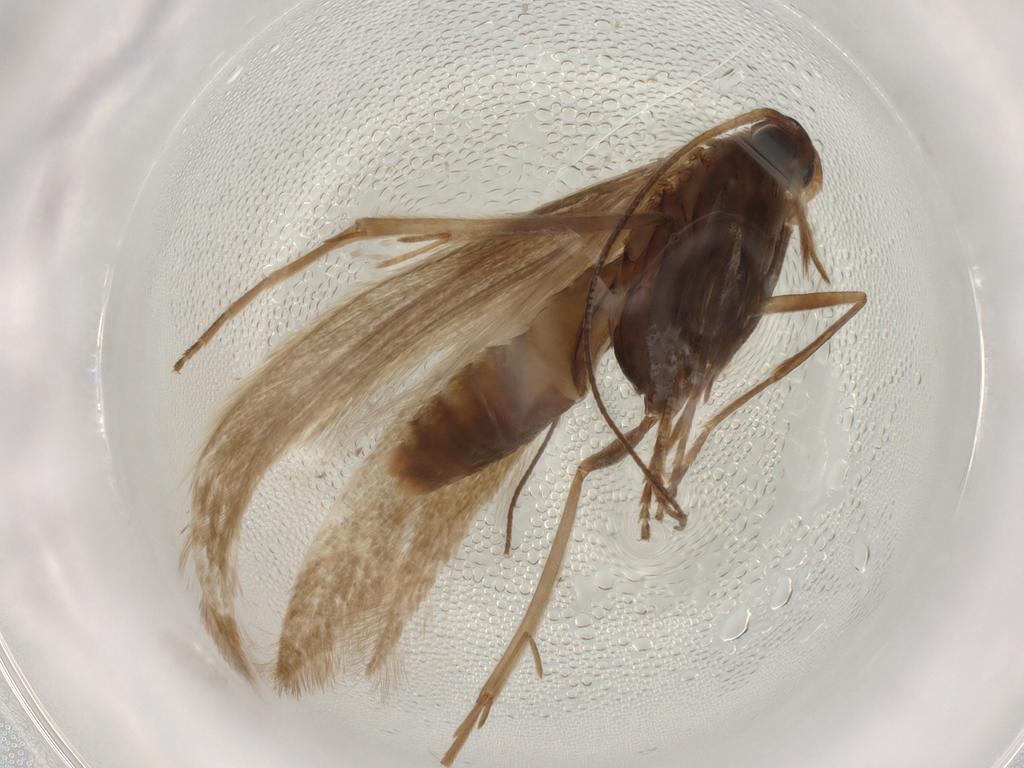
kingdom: Animalia
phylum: Arthropoda
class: Insecta
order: Lepidoptera
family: Coleophoridae
